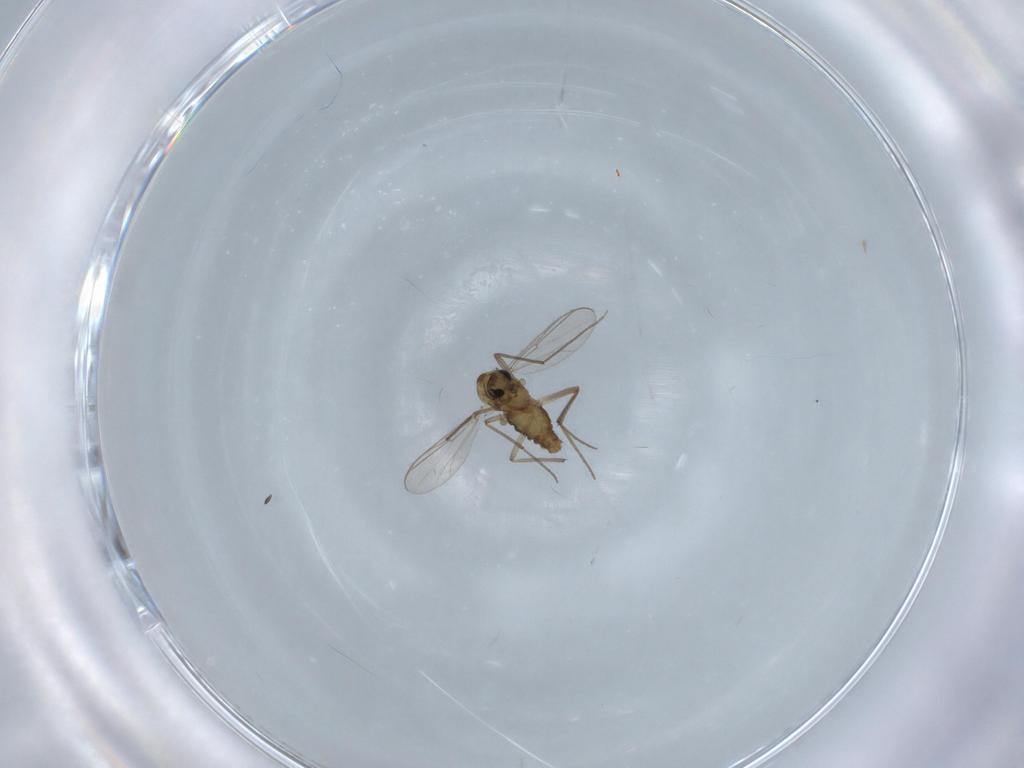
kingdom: Animalia
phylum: Arthropoda
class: Insecta
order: Diptera
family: Chironomidae
